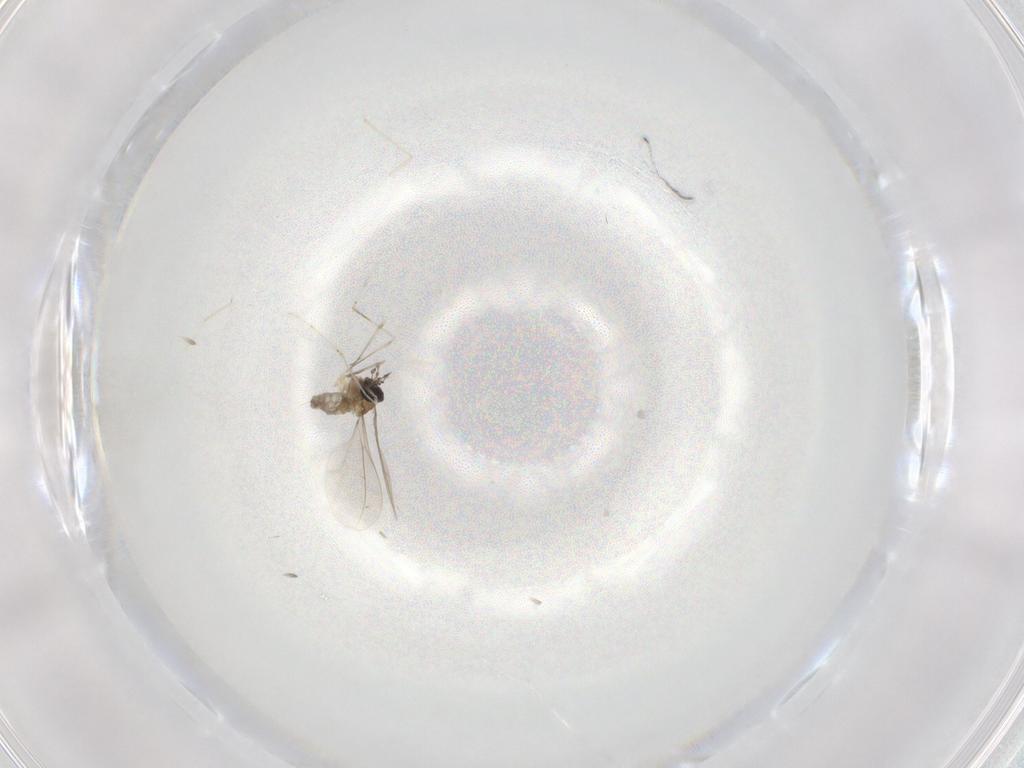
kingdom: Animalia
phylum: Arthropoda
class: Insecta
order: Diptera
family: Cecidomyiidae
